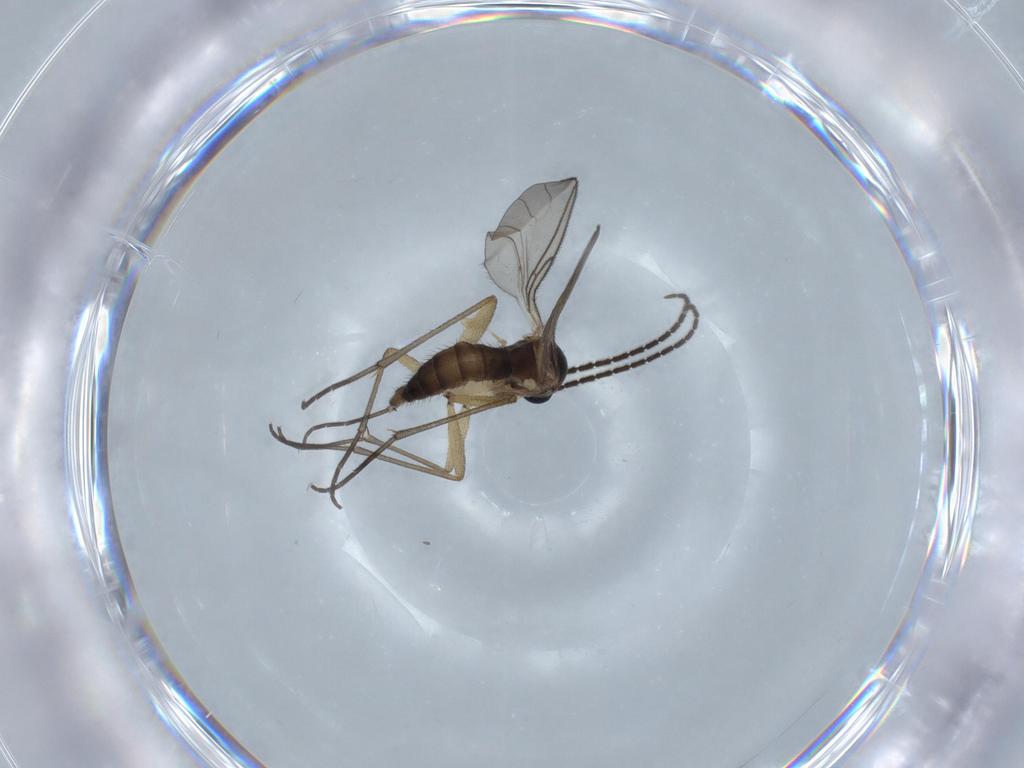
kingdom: Animalia
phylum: Arthropoda
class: Insecta
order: Diptera
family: Sciaridae
